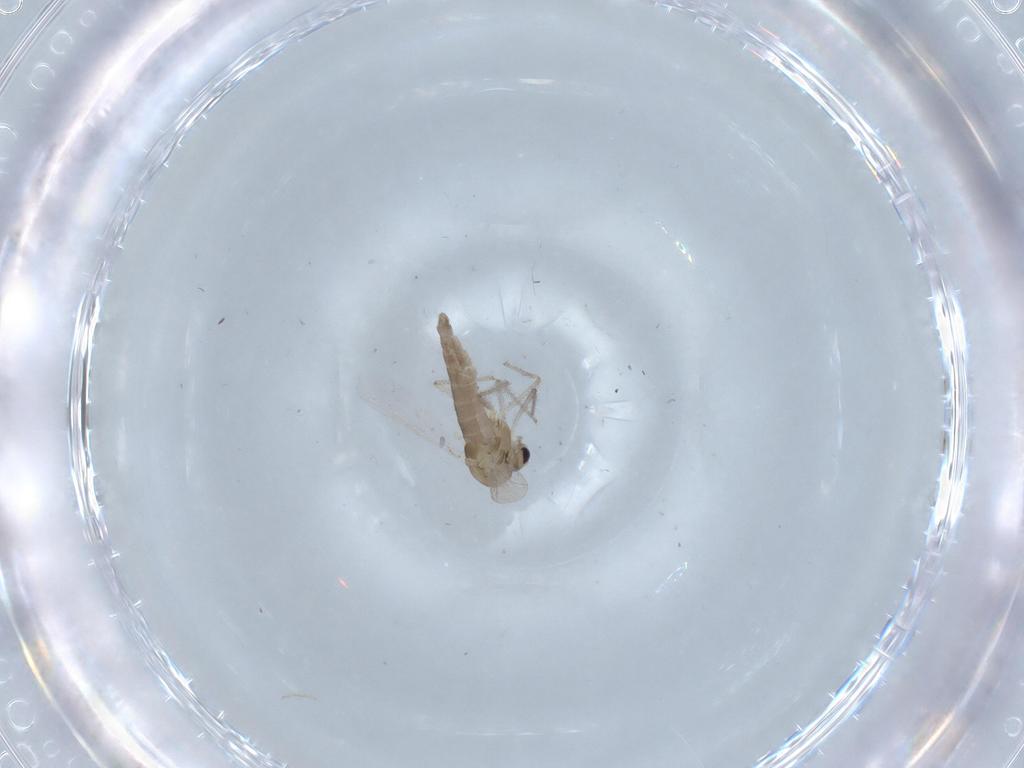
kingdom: Animalia
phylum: Arthropoda
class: Insecta
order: Diptera
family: Chironomidae
